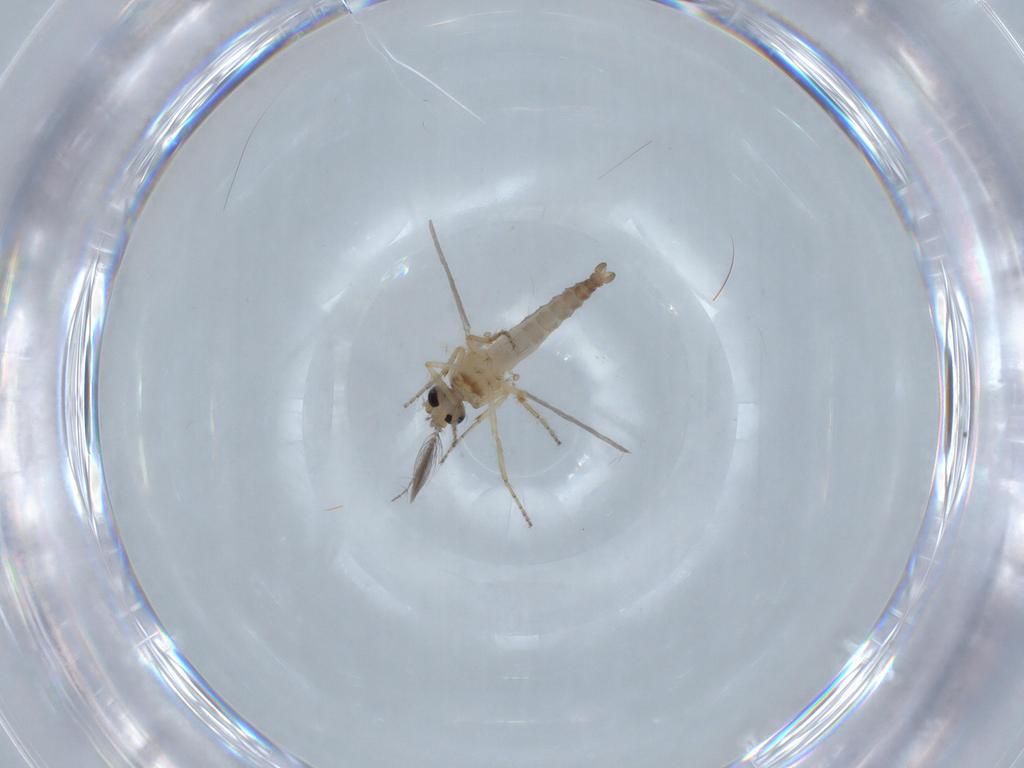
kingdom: Animalia
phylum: Arthropoda
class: Insecta
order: Diptera
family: Ceratopogonidae
